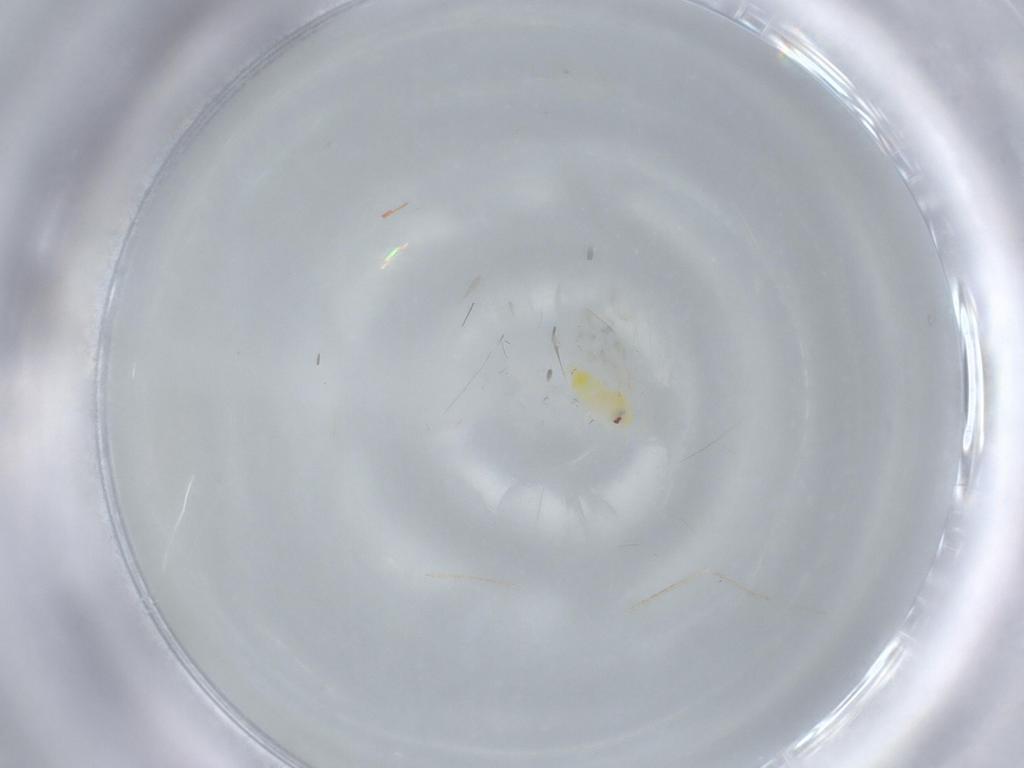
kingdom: Animalia
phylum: Arthropoda
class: Insecta
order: Hemiptera
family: Aleyrodidae
